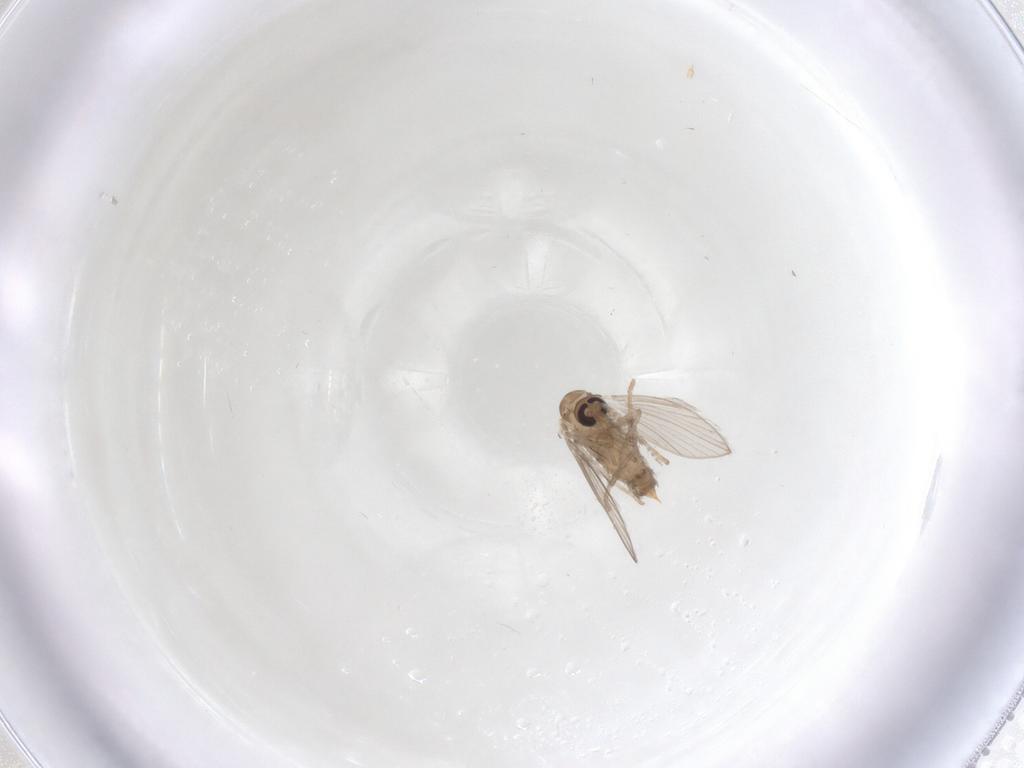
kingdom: Animalia
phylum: Arthropoda
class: Insecta
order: Diptera
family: Psychodidae
